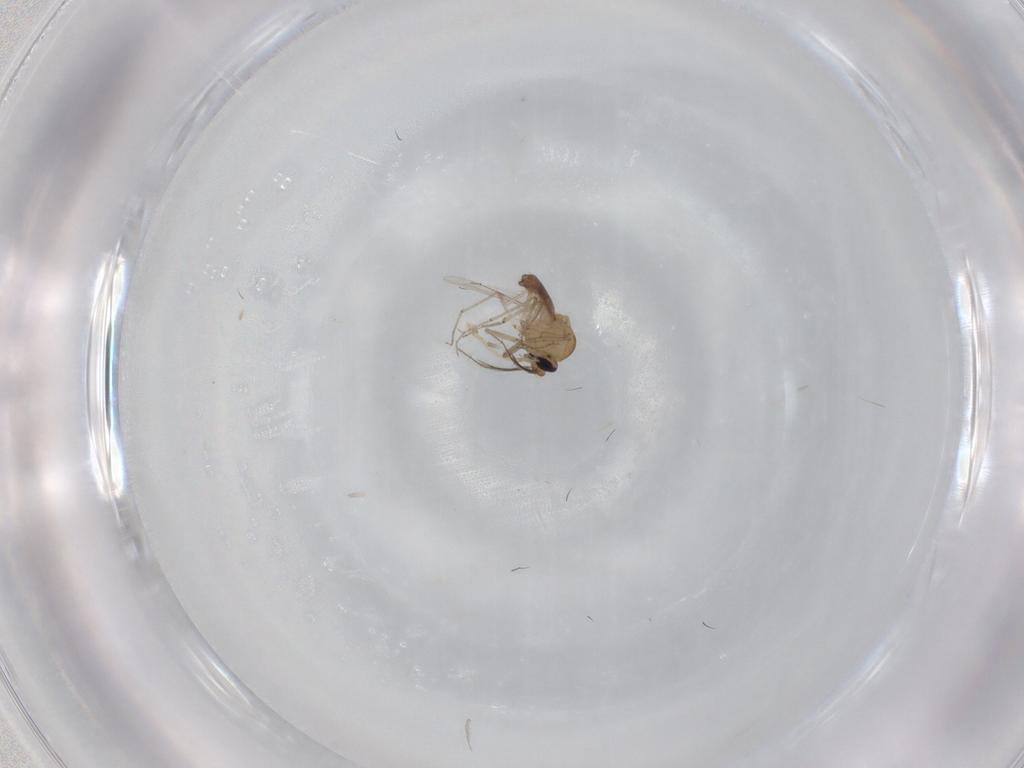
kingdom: Animalia
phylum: Arthropoda
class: Insecta
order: Diptera
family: Ceratopogonidae
